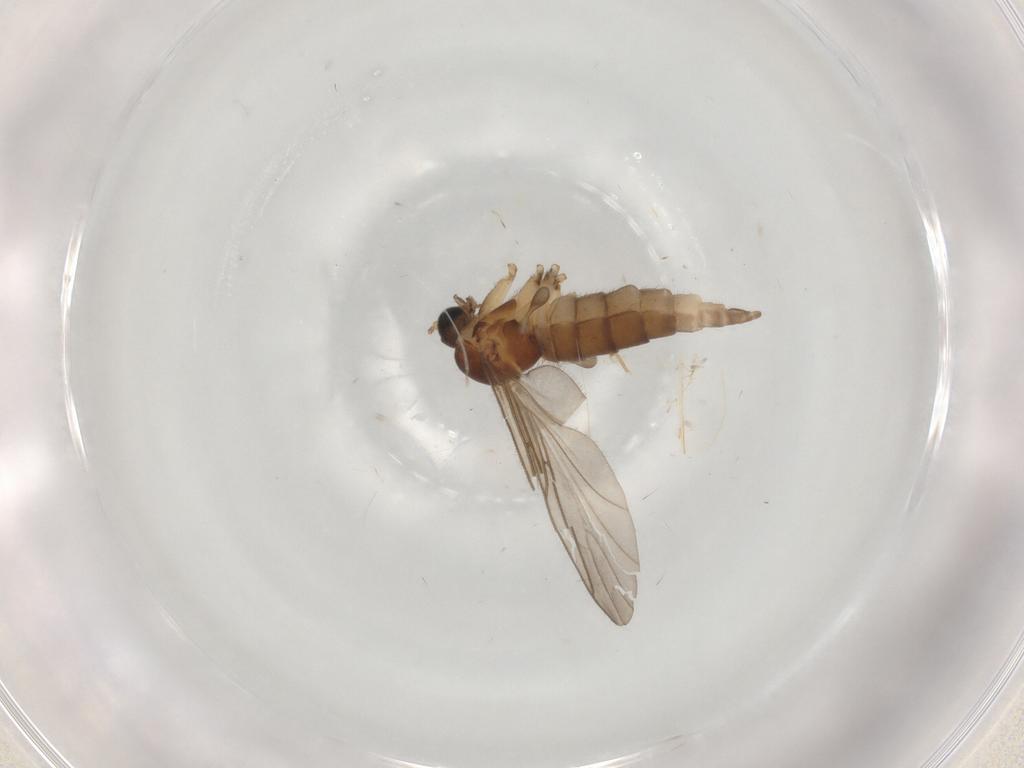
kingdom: Animalia
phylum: Arthropoda
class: Insecta
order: Diptera
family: Sciaridae
